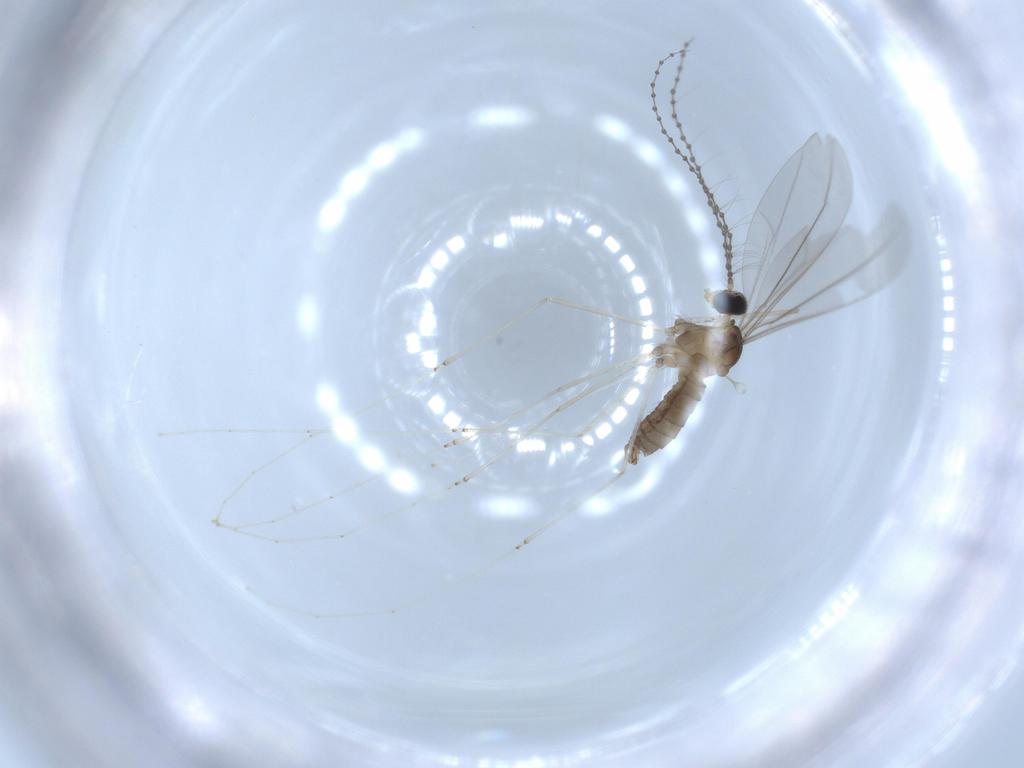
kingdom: Animalia
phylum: Arthropoda
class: Insecta
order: Diptera
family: Cecidomyiidae
